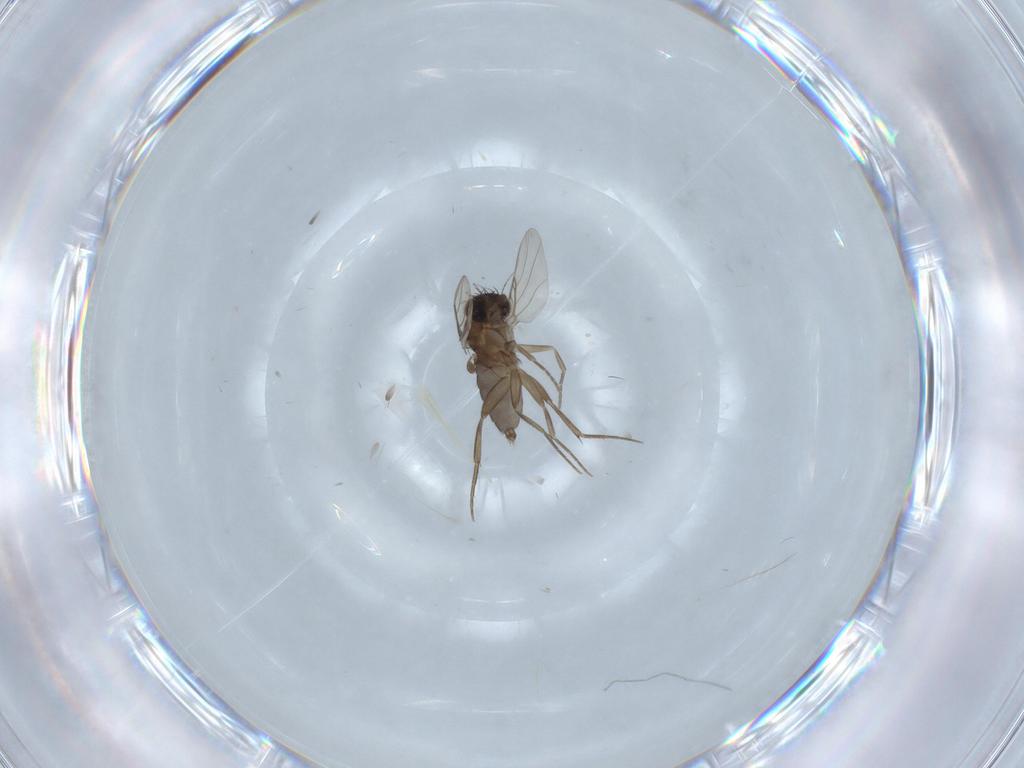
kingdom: Animalia
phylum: Arthropoda
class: Insecta
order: Diptera
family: Phoridae
